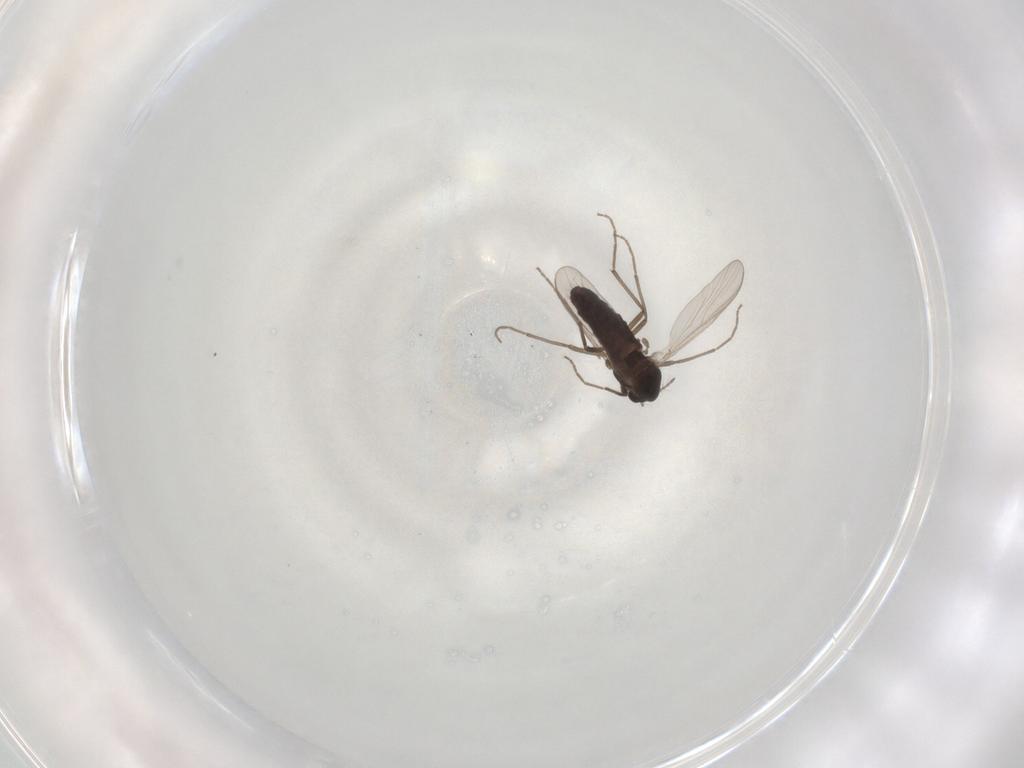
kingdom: Animalia
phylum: Arthropoda
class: Insecta
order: Diptera
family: Chironomidae
